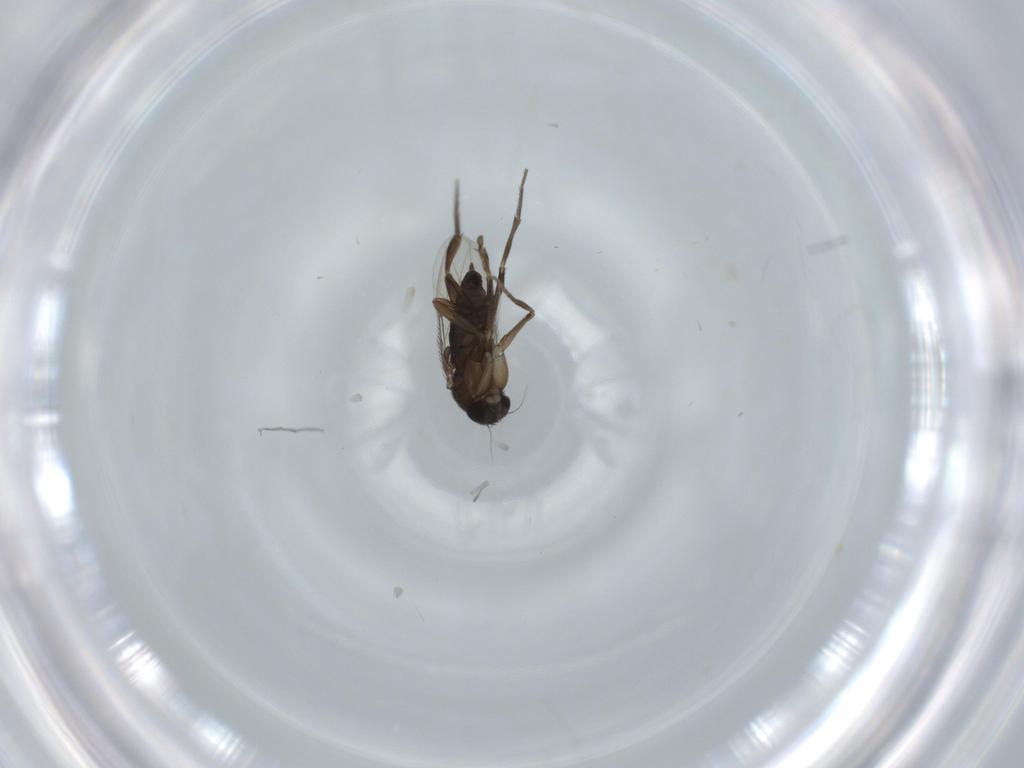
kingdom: Animalia
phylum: Arthropoda
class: Insecta
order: Diptera
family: Phoridae
